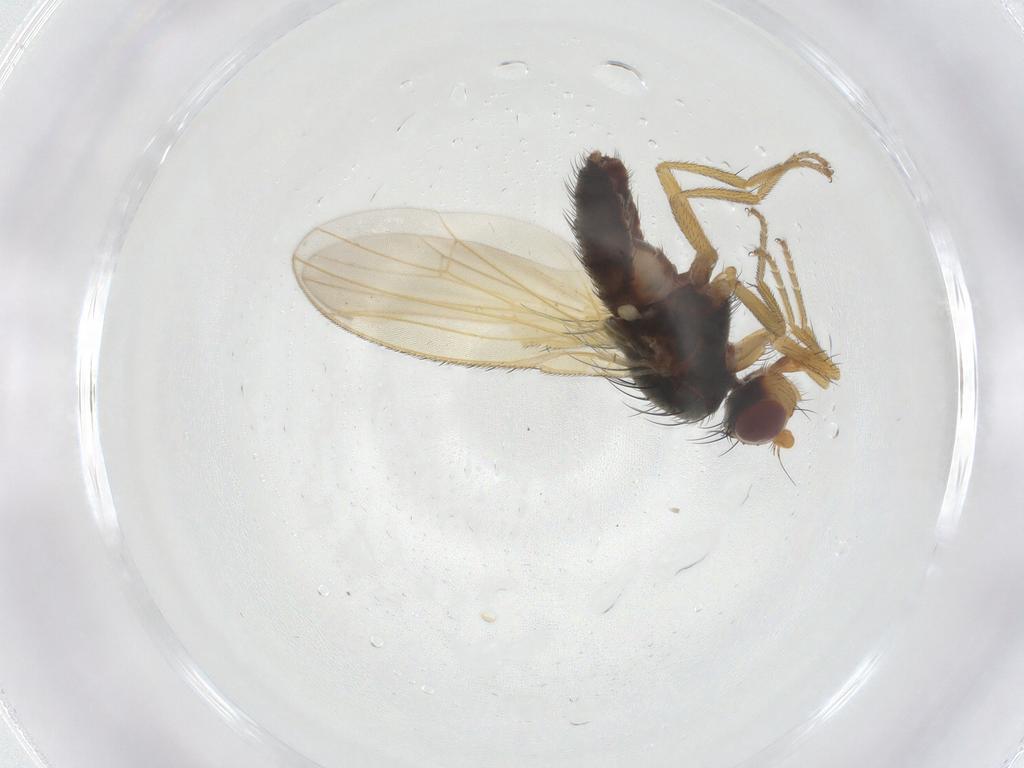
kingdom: Animalia
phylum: Arthropoda
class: Insecta
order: Diptera
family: Heleomyzidae
